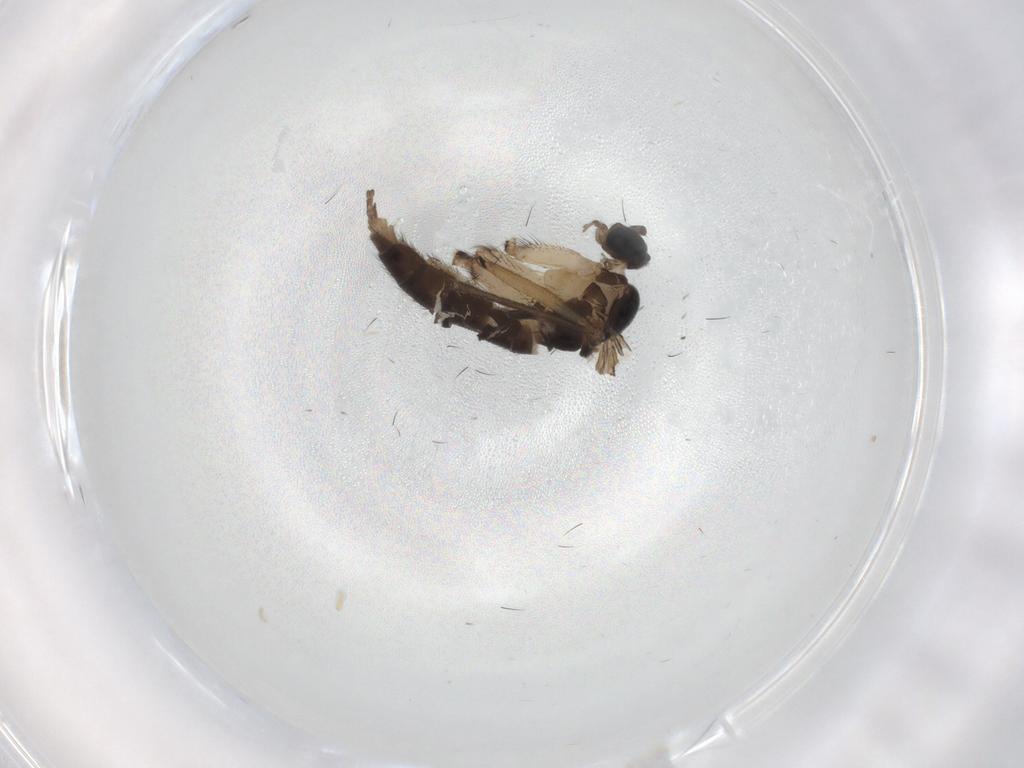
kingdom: Animalia
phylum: Arthropoda
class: Insecta
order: Diptera
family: Sciaridae
